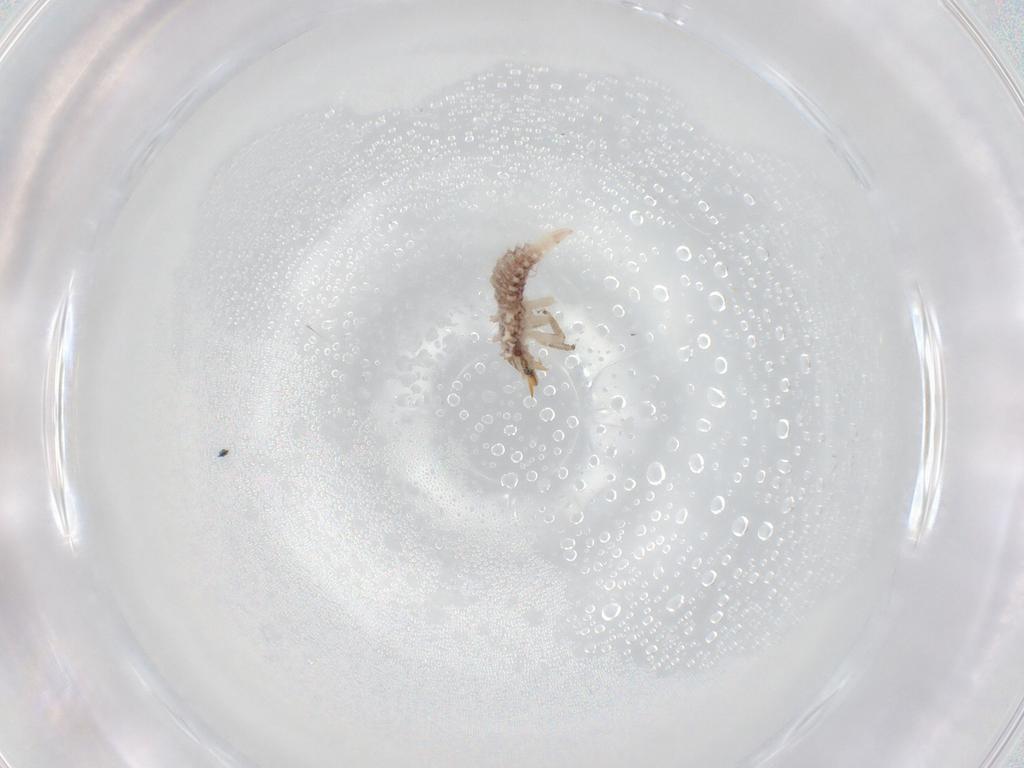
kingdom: Animalia
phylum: Arthropoda
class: Insecta
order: Neuroptera
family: Chrysopidae
